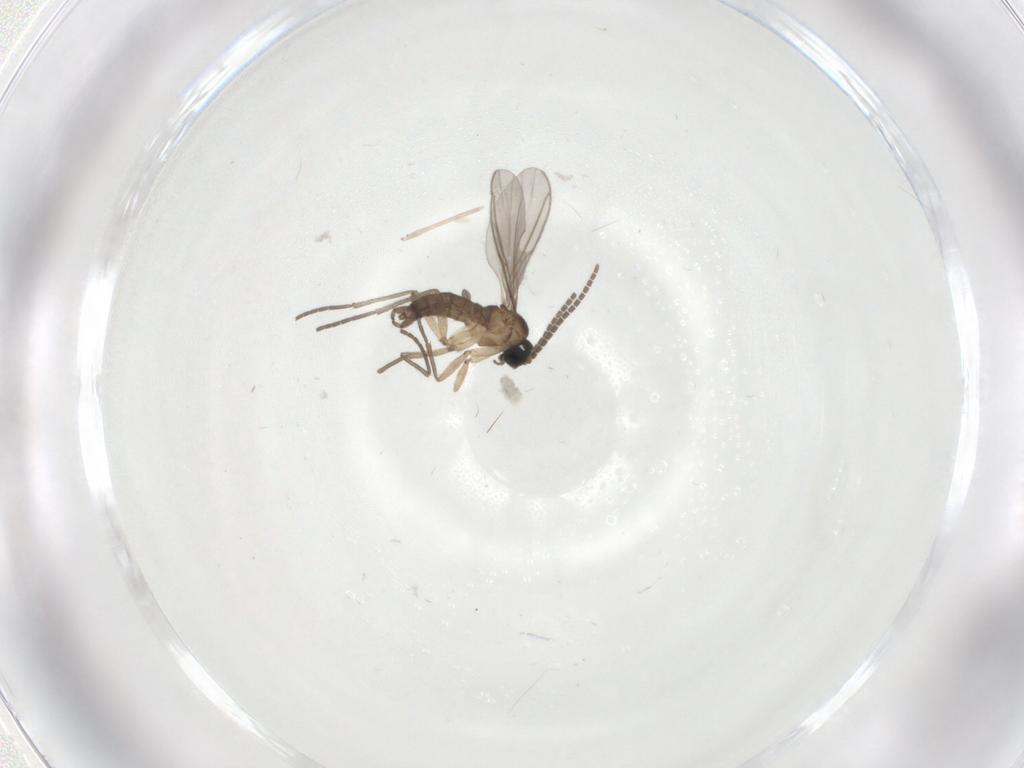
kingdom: Animalia
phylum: Arthropoda
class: Insecta
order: Diptera
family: Sciaridae
